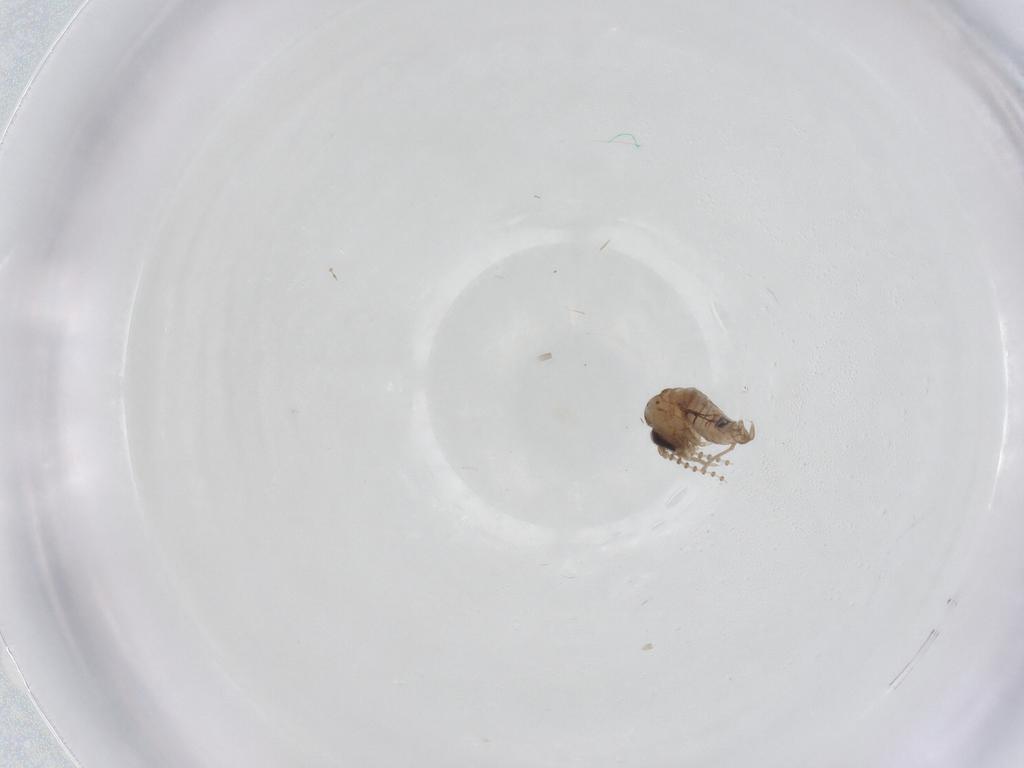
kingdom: Animalia
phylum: Arthropoda
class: Insecta
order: Diptera
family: Psychodidae
